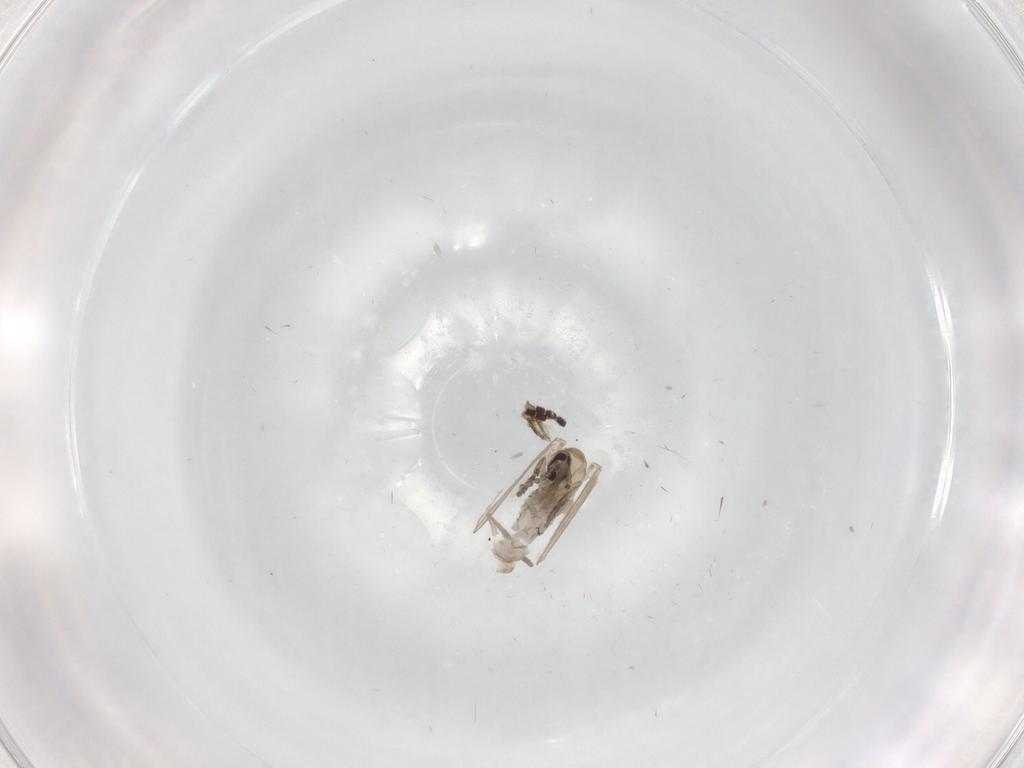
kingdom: Animalia
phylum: Arthropoda
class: Insecta
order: Diptera
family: Psychodidae
